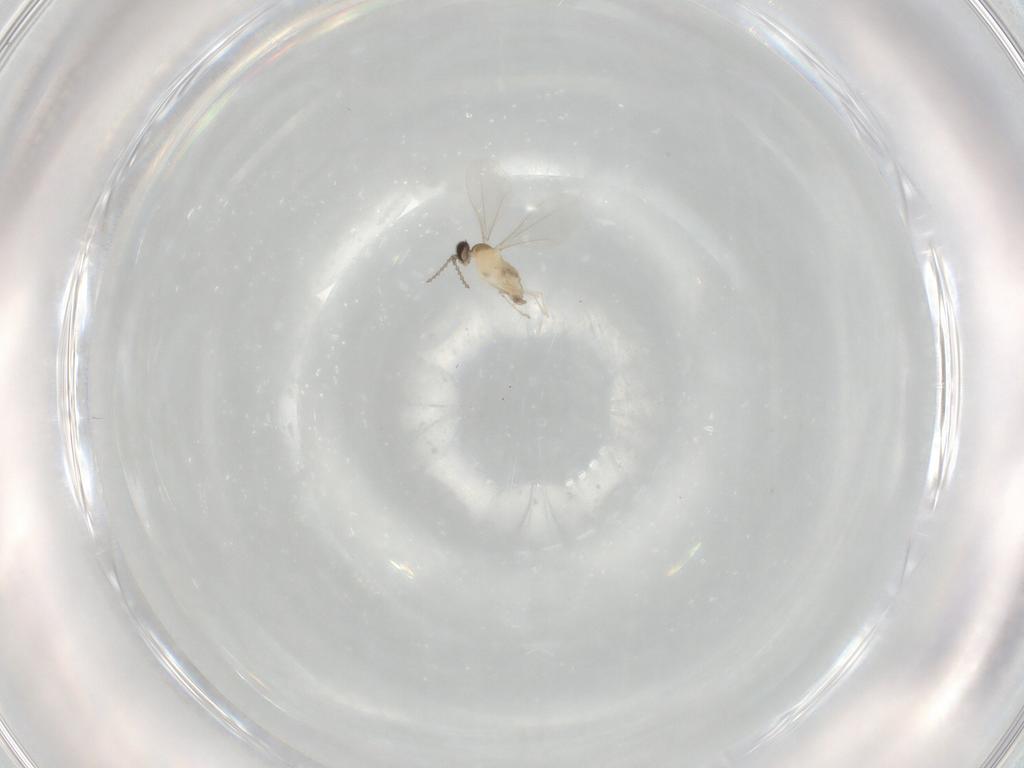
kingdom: Animalia
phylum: Arthropoda
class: Insecta
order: Diptera
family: Cecidomyiidae
